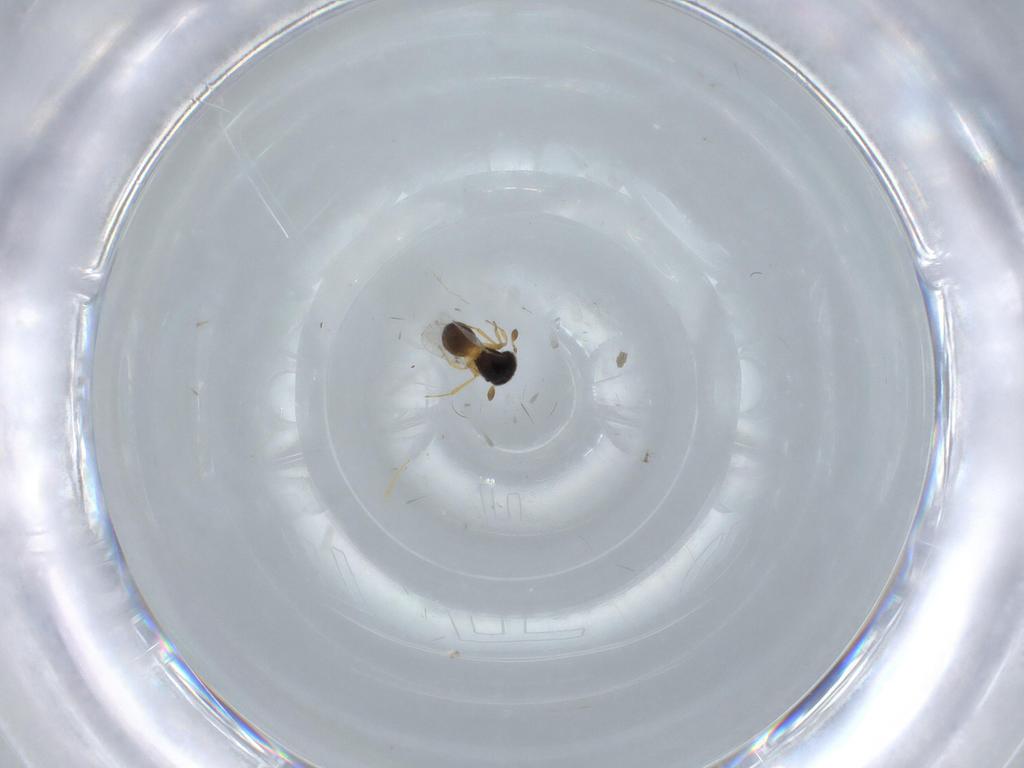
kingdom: Animalia
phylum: Arthropoda
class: Insecta
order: Hymenoptera
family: Scelionidae
